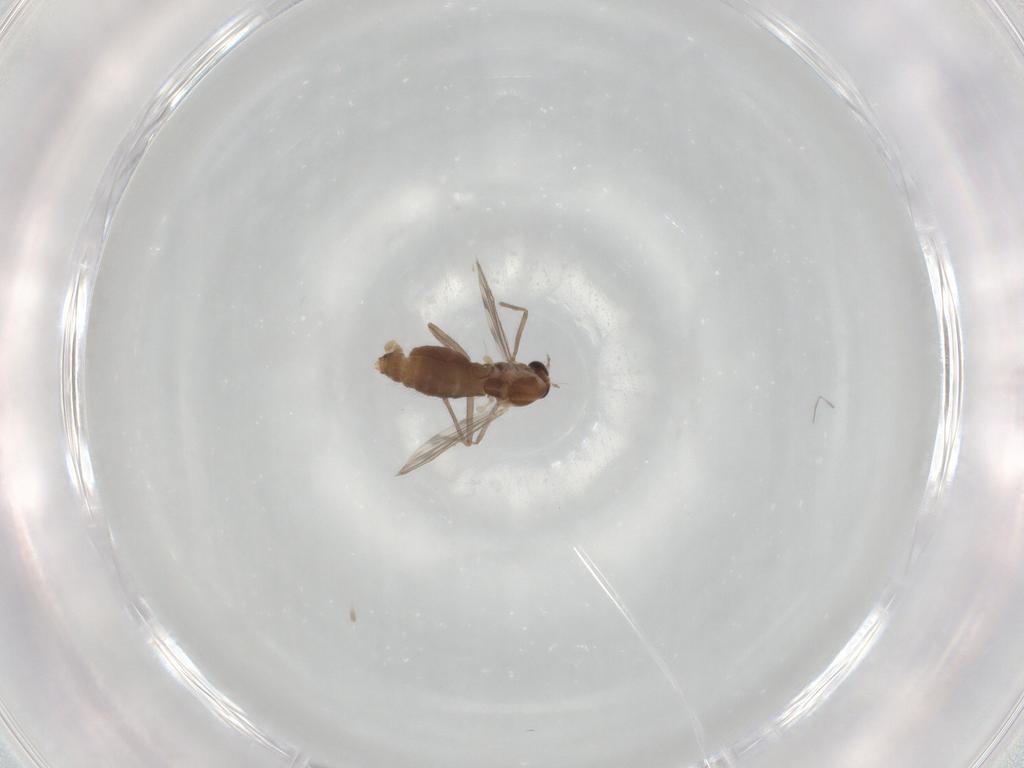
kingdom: Animalia
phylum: Arthropoda
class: Insecta
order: Diptera
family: Chironomidae
